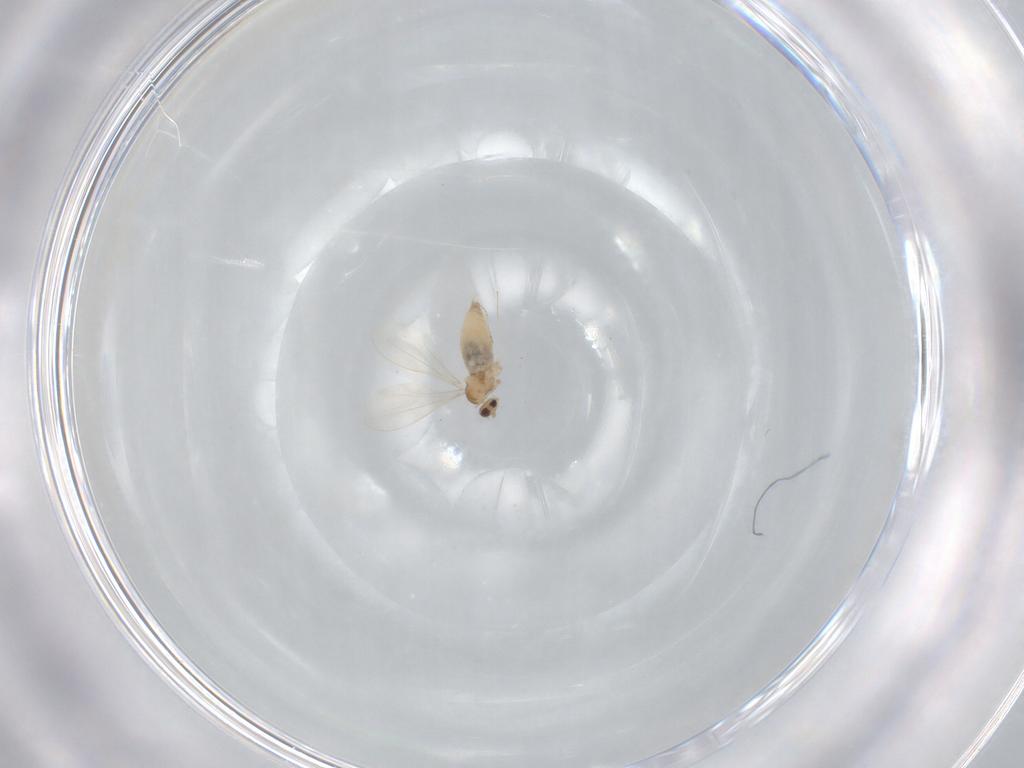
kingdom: Animalia
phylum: Arthropoda
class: Insecta
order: Diptera
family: Cecidomyiidae
